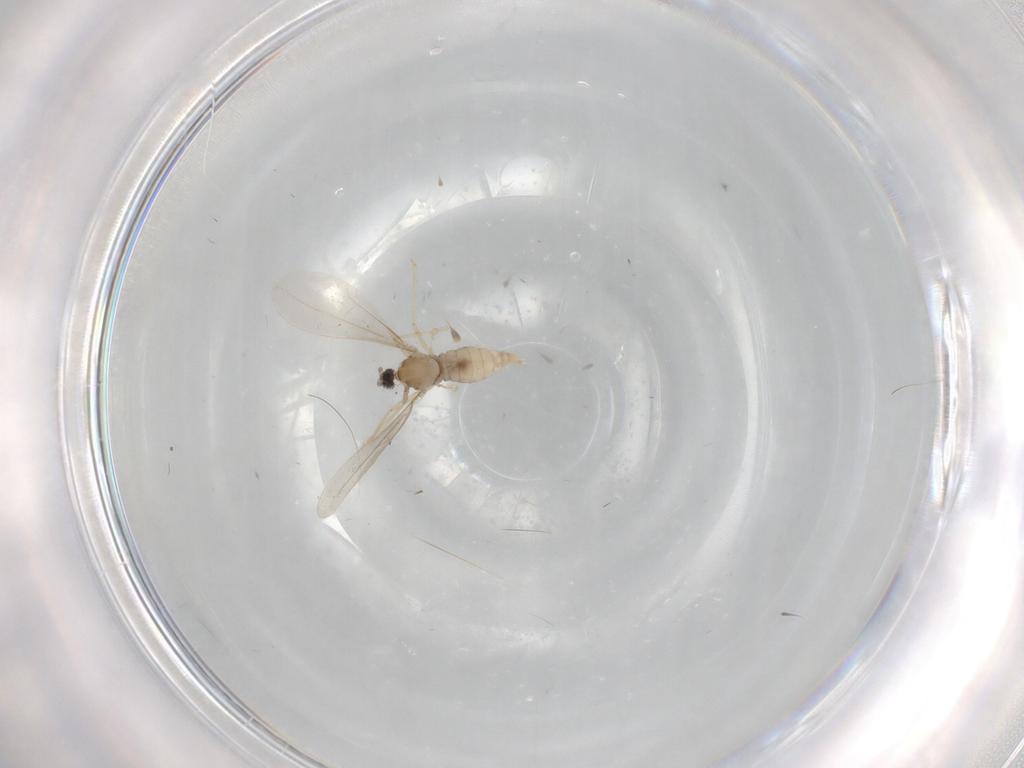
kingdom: Animalia
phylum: Arthropoda
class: Insecta
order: Diptera
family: Cecidomyiidae
